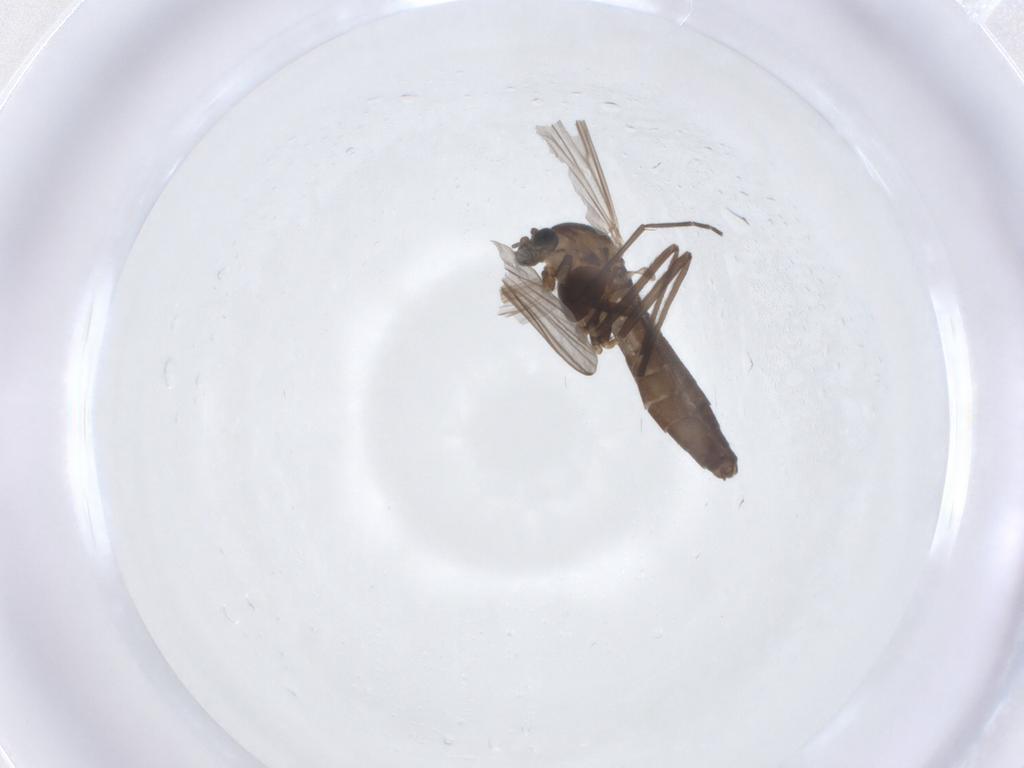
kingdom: Animalia
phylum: Arthropoda
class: Insecta
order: Diptera
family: Chironomidae
